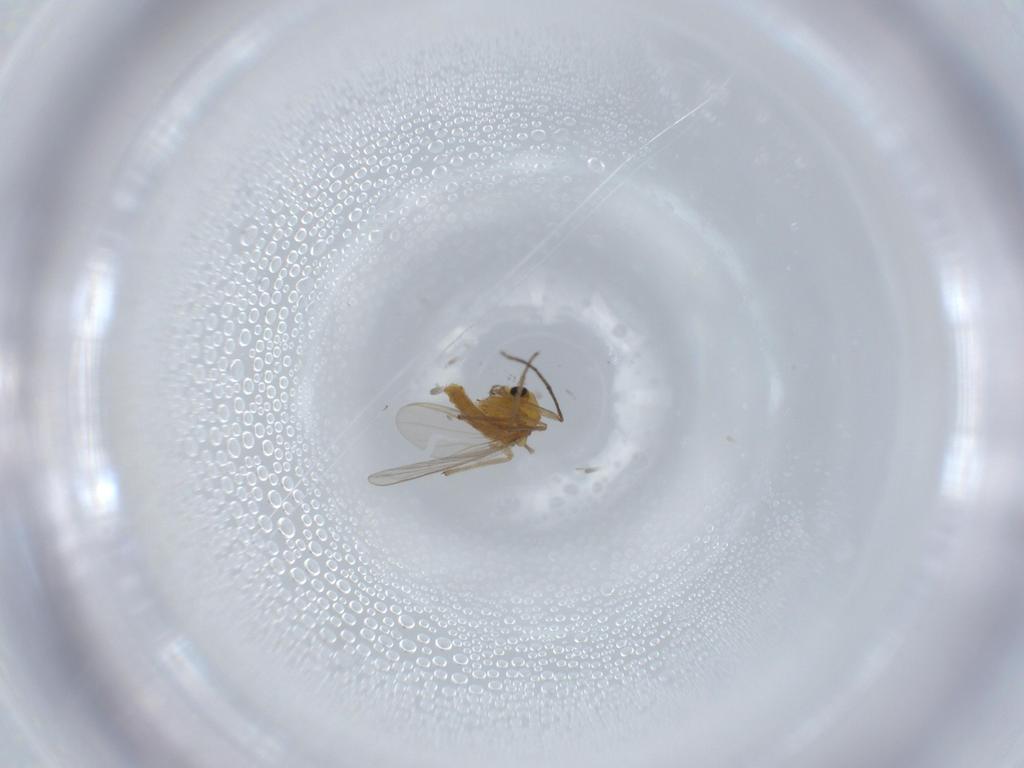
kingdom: Animalia
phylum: Arthropoda
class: Insecta
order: Diptera
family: Chironomidae
